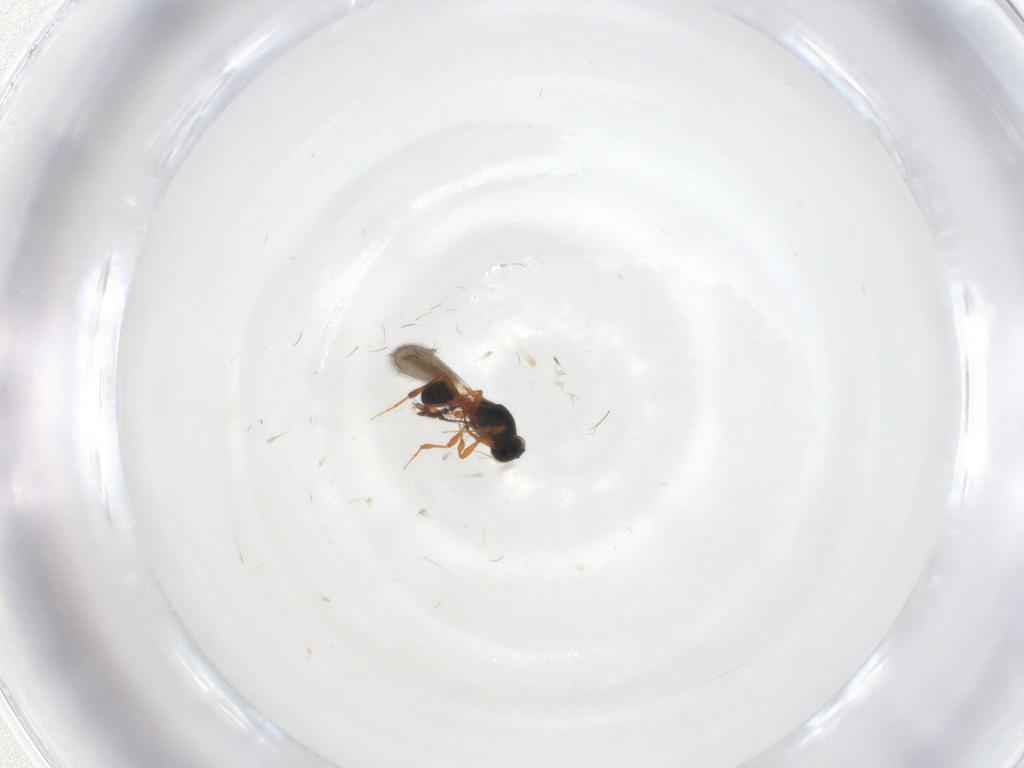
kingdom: Animalia
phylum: Arthropoda
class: Insecta
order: Hymenoptera
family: Platygastridae
